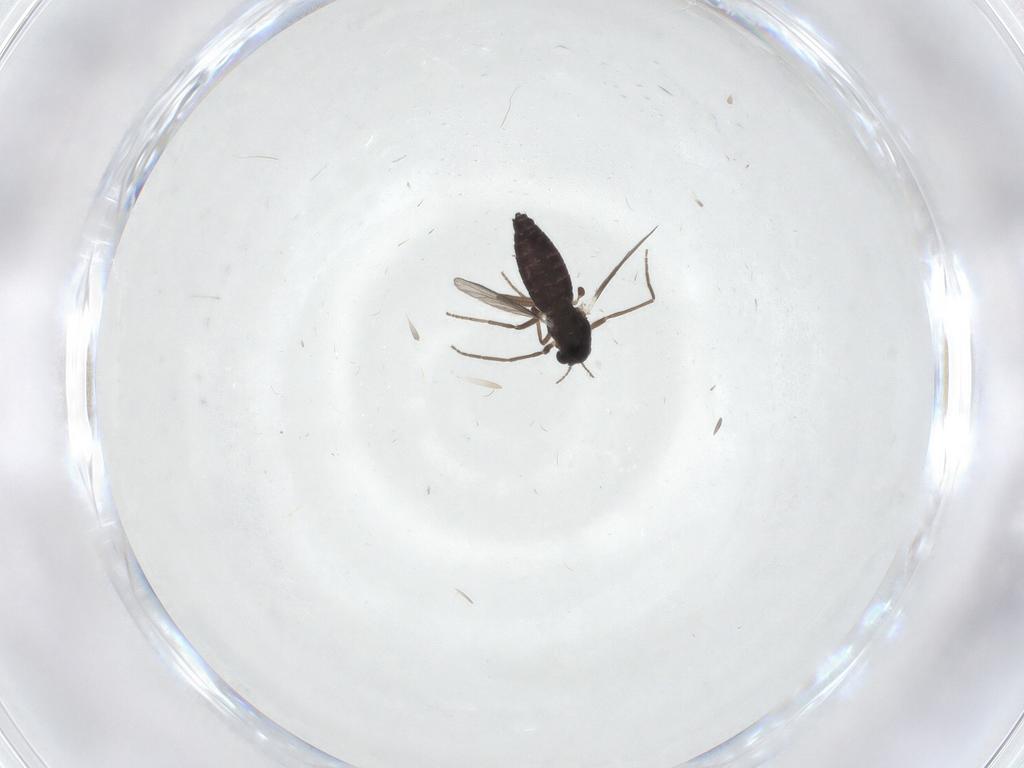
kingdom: Animalia
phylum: Arthropoda
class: Insecta
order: Diptera
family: Chironomidae
